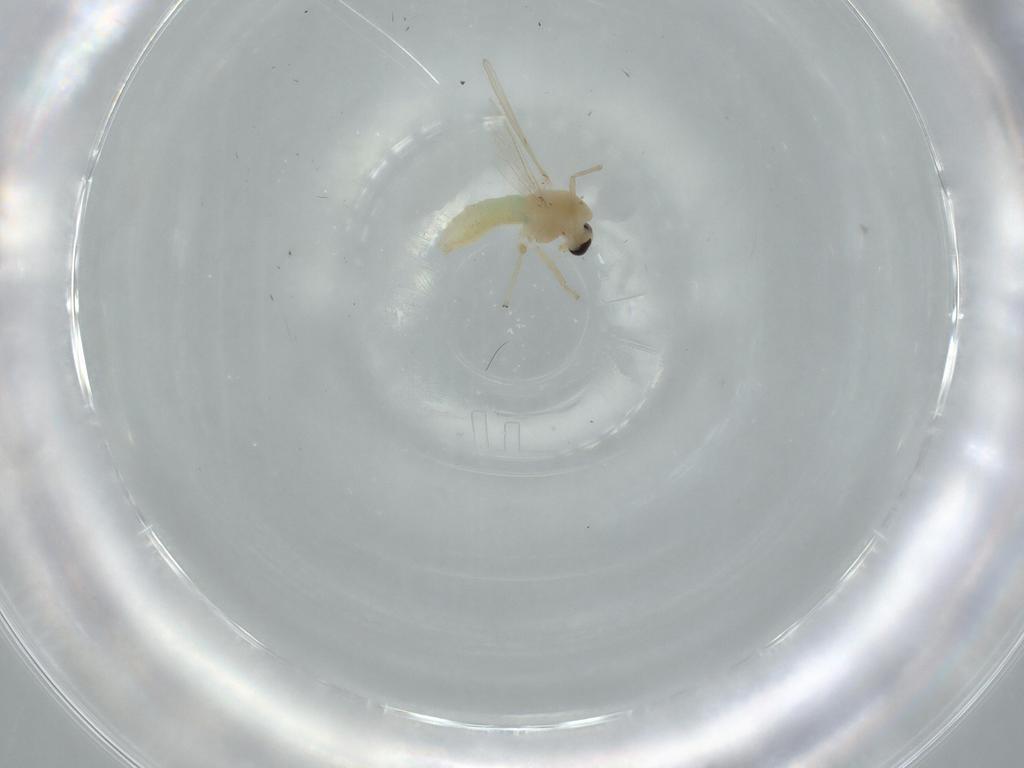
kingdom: Animalia
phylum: Arthropoda
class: Insecta
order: Diptera
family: Chironomidae
